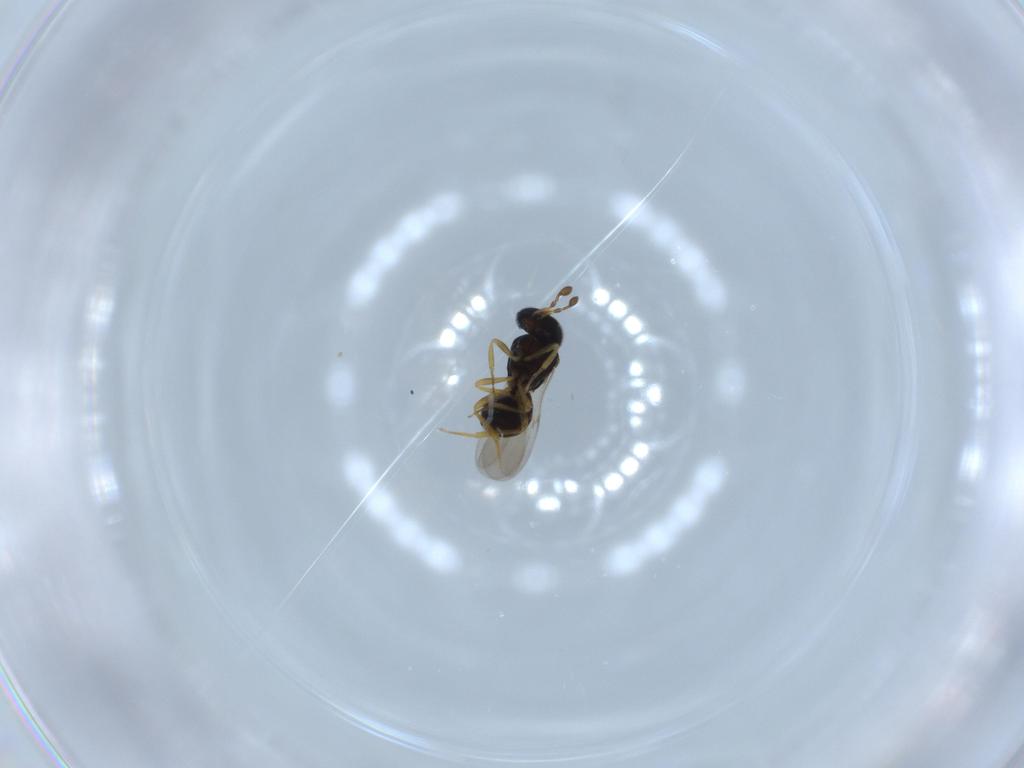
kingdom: Animalia
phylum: Arthropoda
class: Insecta
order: Hymenoptera
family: Scelionidae
